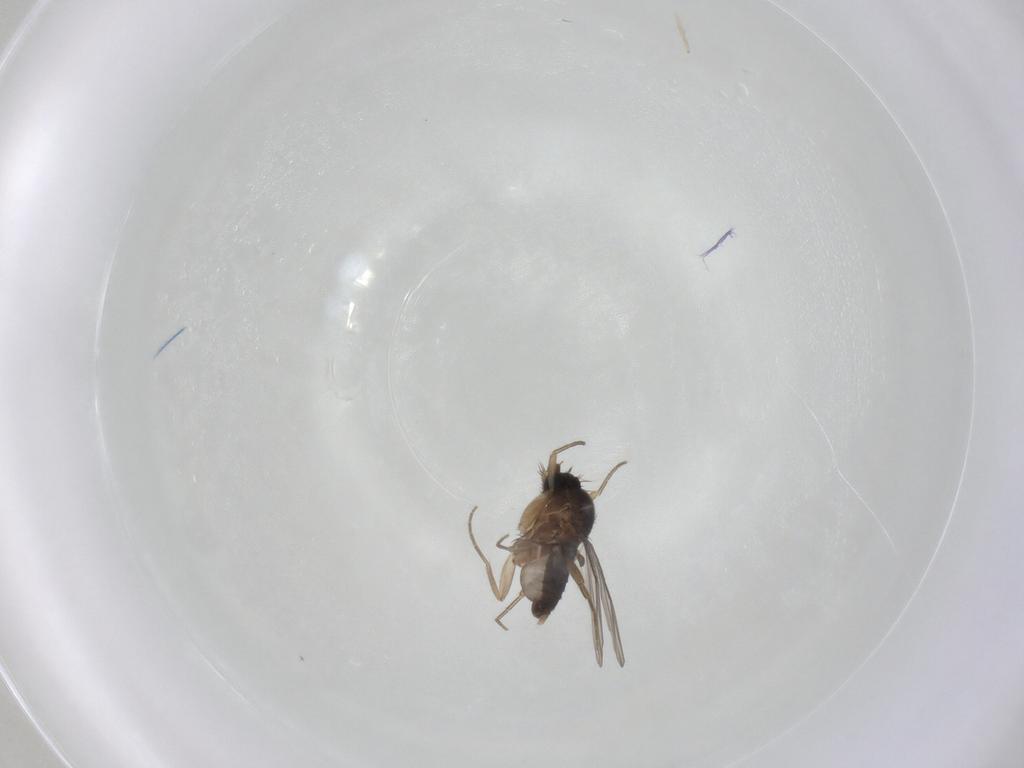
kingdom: Animalia
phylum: Arthropoda
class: Insecta
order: Diptera
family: Phoridae
